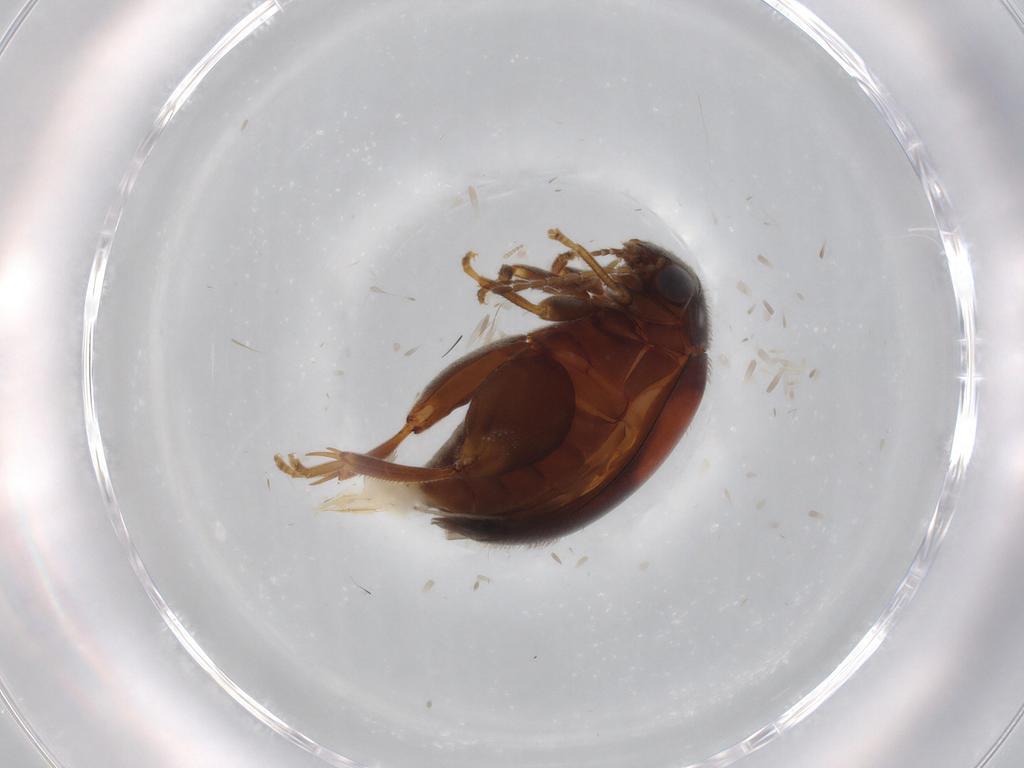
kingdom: Animalia
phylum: Arthropoda
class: Insecta
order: Coleoptera
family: Scirtidae
